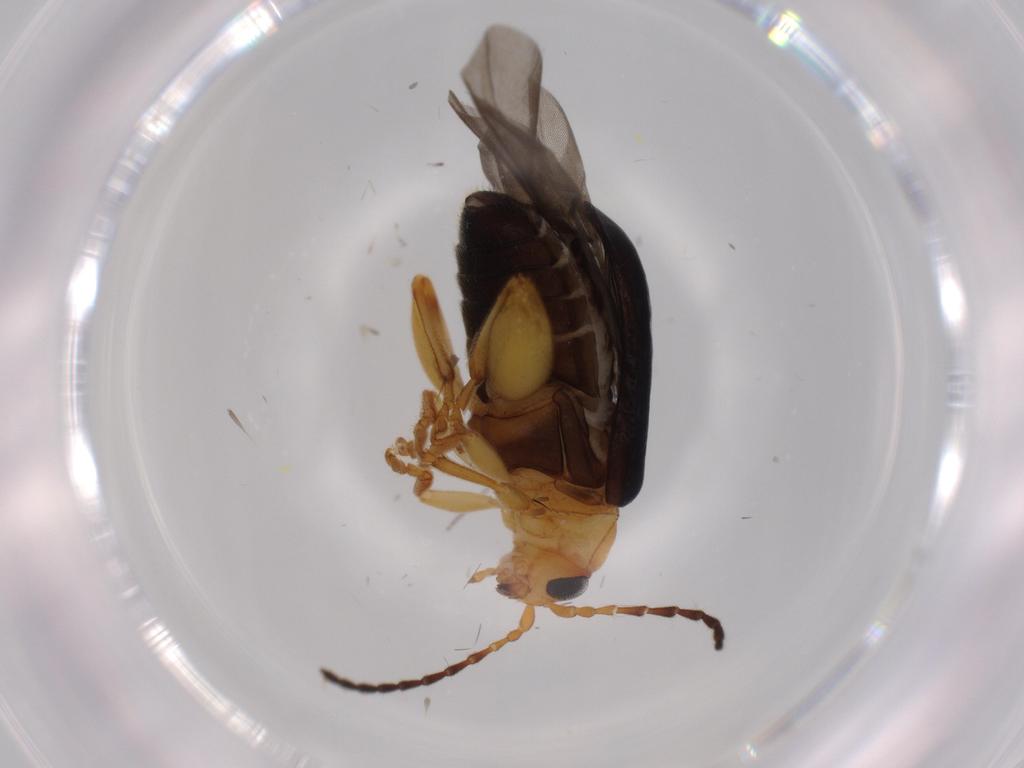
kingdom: Animalia
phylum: Arthropoda
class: Insecta
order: Coleoptera
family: Chrysomelidae
